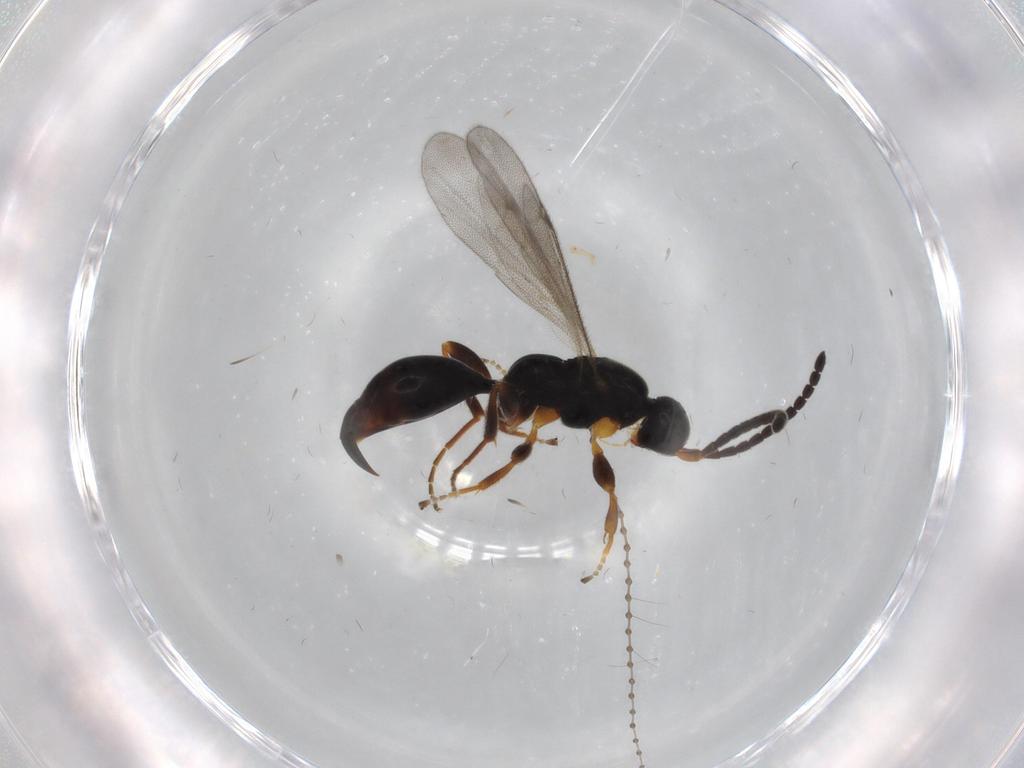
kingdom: Animalia
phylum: Arthropoda
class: Insecta
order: Hymenoptera
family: Proctotrupidae
